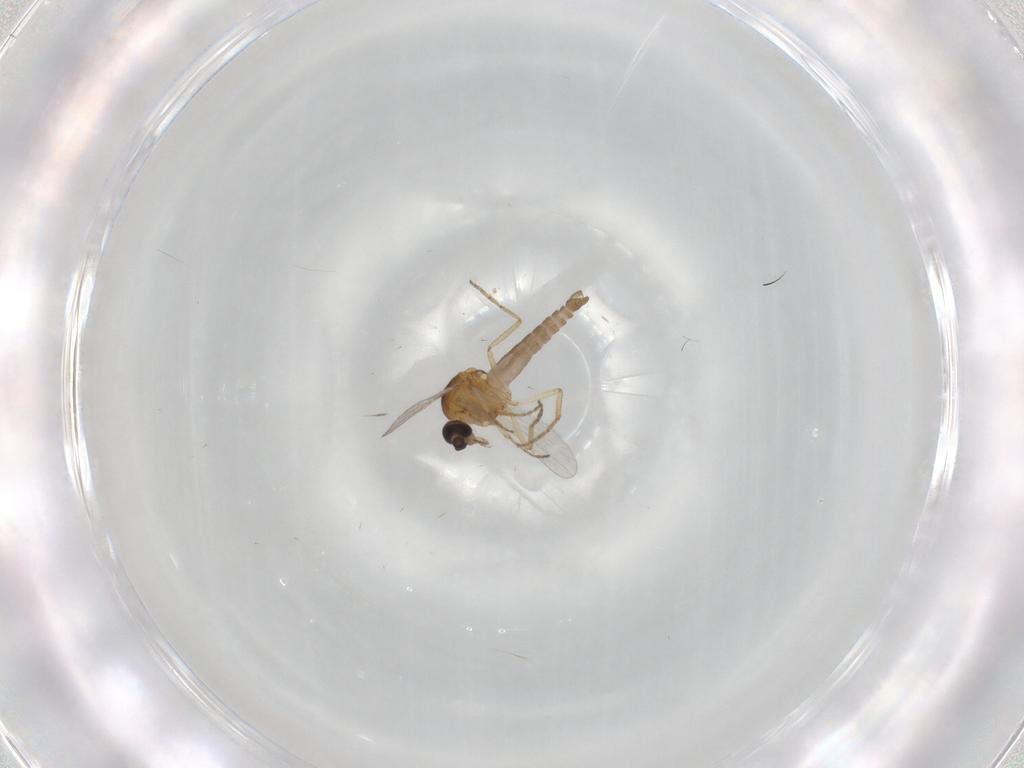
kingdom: Animalia
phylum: Arthropoda
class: Insecta
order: Diptera
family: Ceratopogonidae
